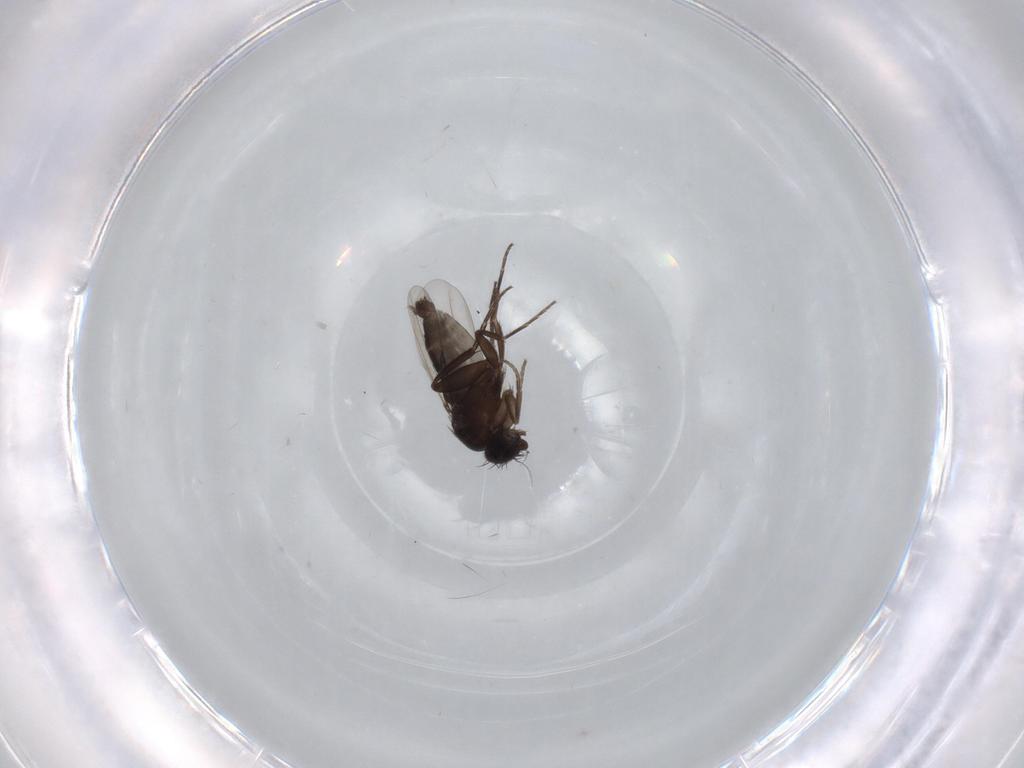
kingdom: Animalia
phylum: Arthropoda
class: Insecta
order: Diptera
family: Phoridae
